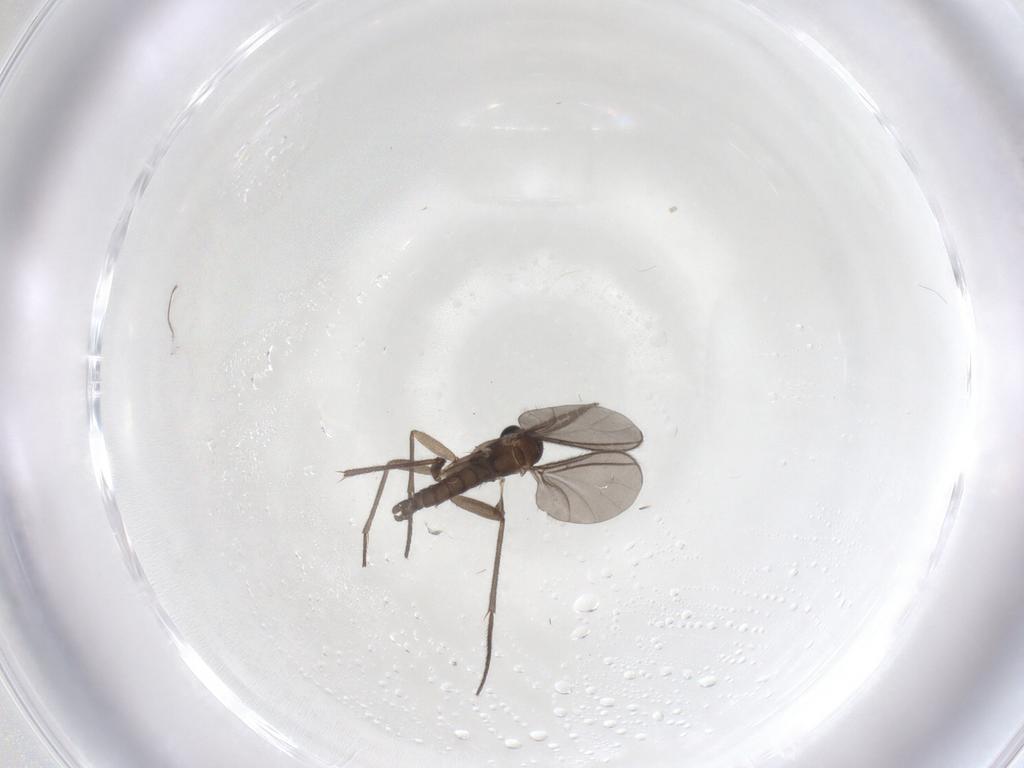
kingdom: Animalia
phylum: Arthropoda
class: Insecta
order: Diptera
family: Sciaridae
